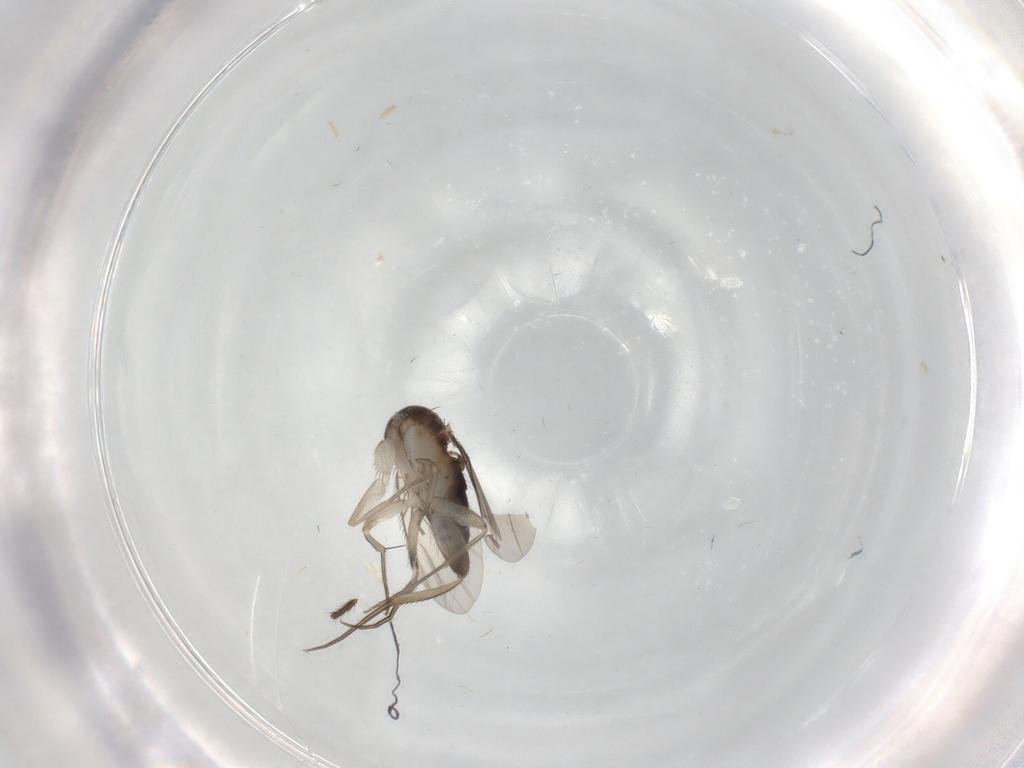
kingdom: Animalia
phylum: Arthropoda
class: Insecta
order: Diptera
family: Phoridae
